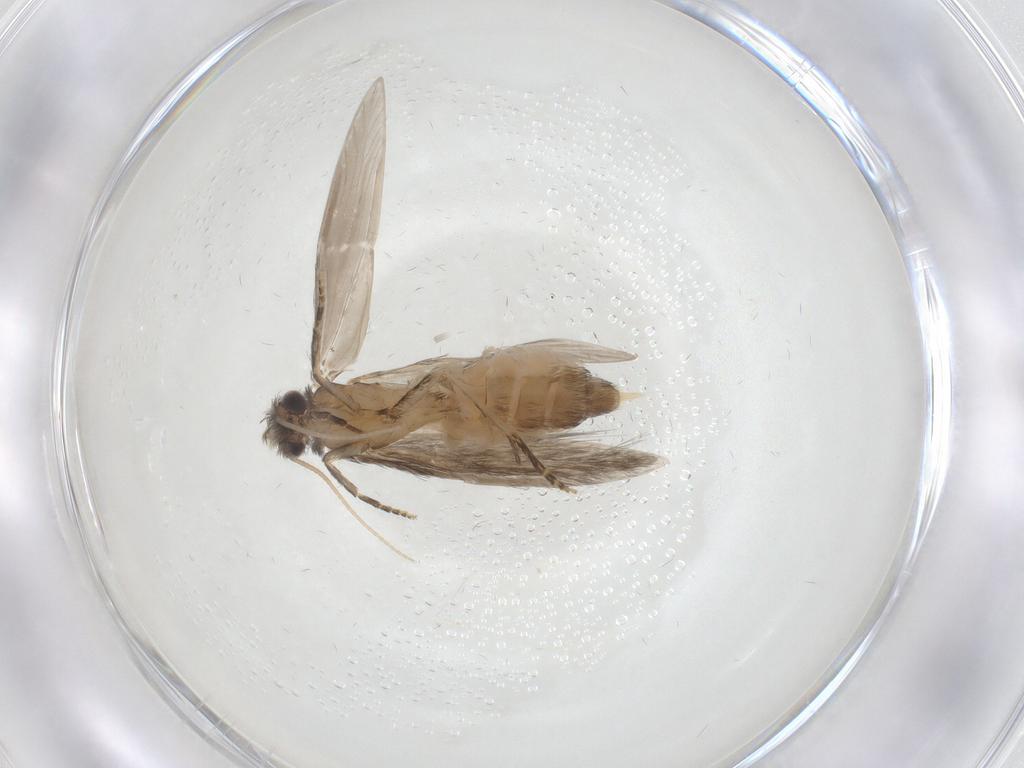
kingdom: Animalia
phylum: Arthropoda
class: Insecta
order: Trichoptera
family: Hydroptilidae
